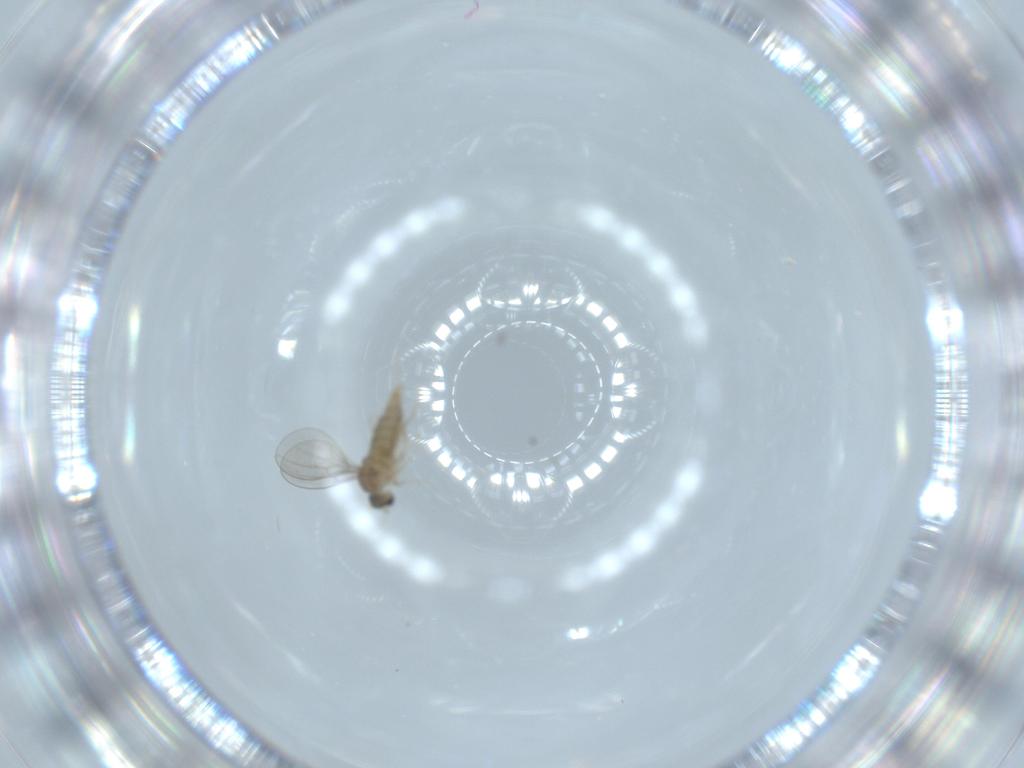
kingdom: Animalia
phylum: Arthropoda
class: Insecta
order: Diptera
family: Cecidomyiidae
